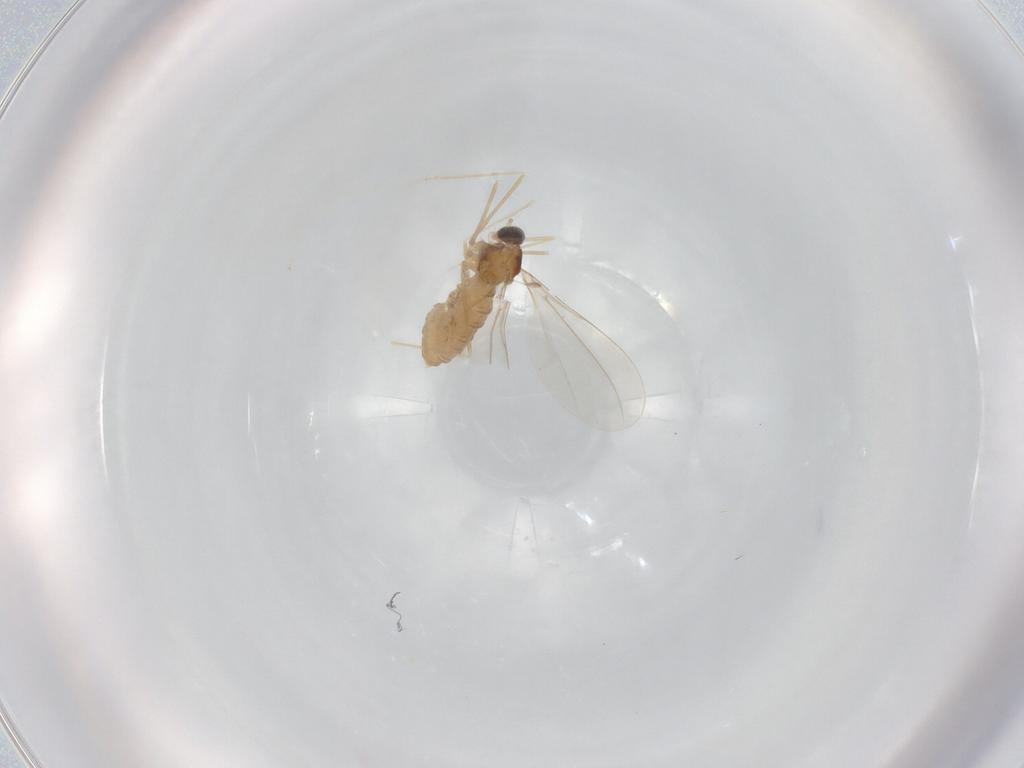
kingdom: Animalia
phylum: Arthropoda
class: Insecta
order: Diptera
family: Cecidomyiidae
